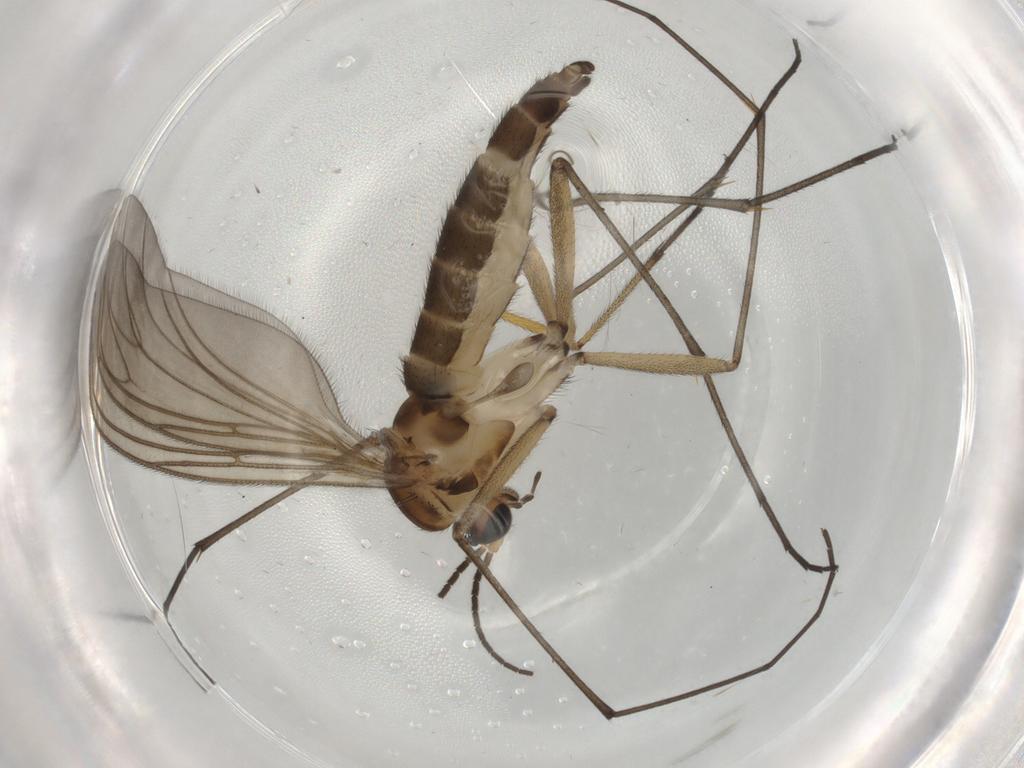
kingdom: Animalia
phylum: Arthropoda
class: Insecta
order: Diptera
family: Sciaridae
